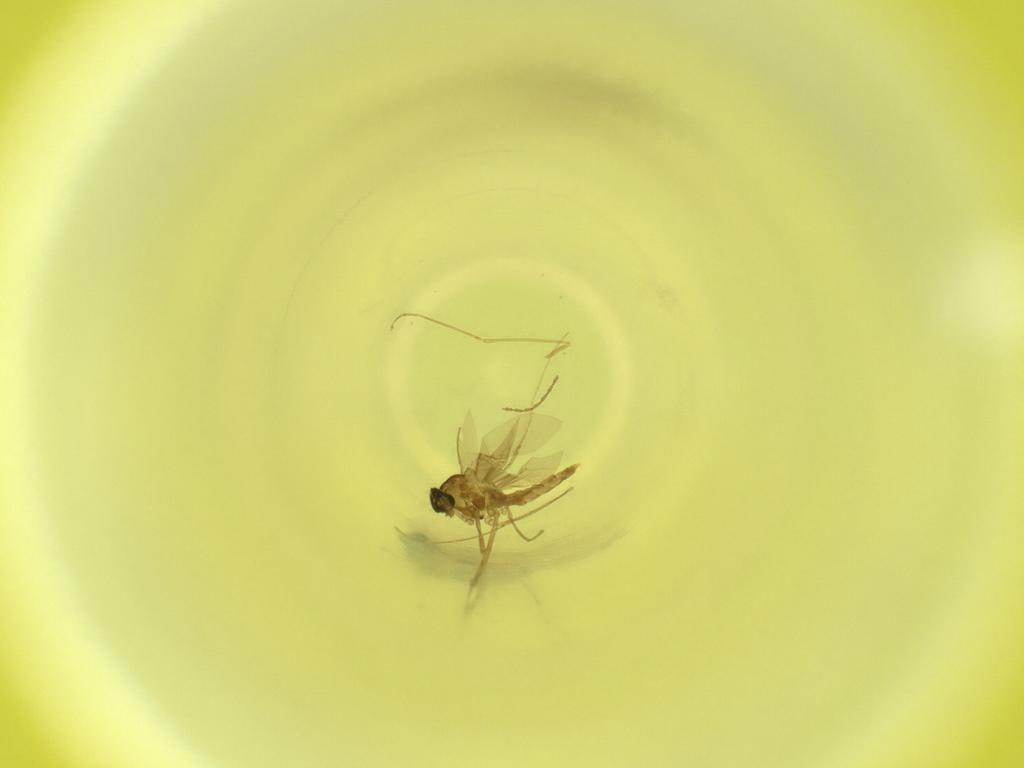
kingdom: Animalia
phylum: Arthropoda
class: Insecta
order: Diptera
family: Cecidomyiidae
